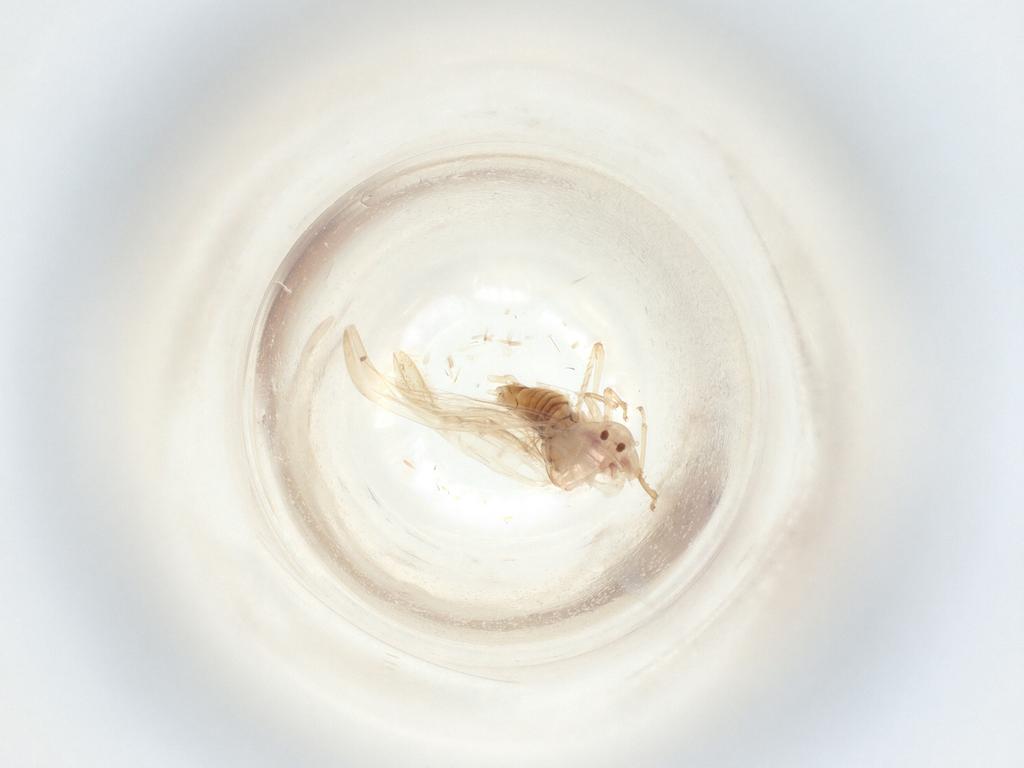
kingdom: Animalia
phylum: Arthropoda
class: Insecta
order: Hemiptera
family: Cicadellidae
